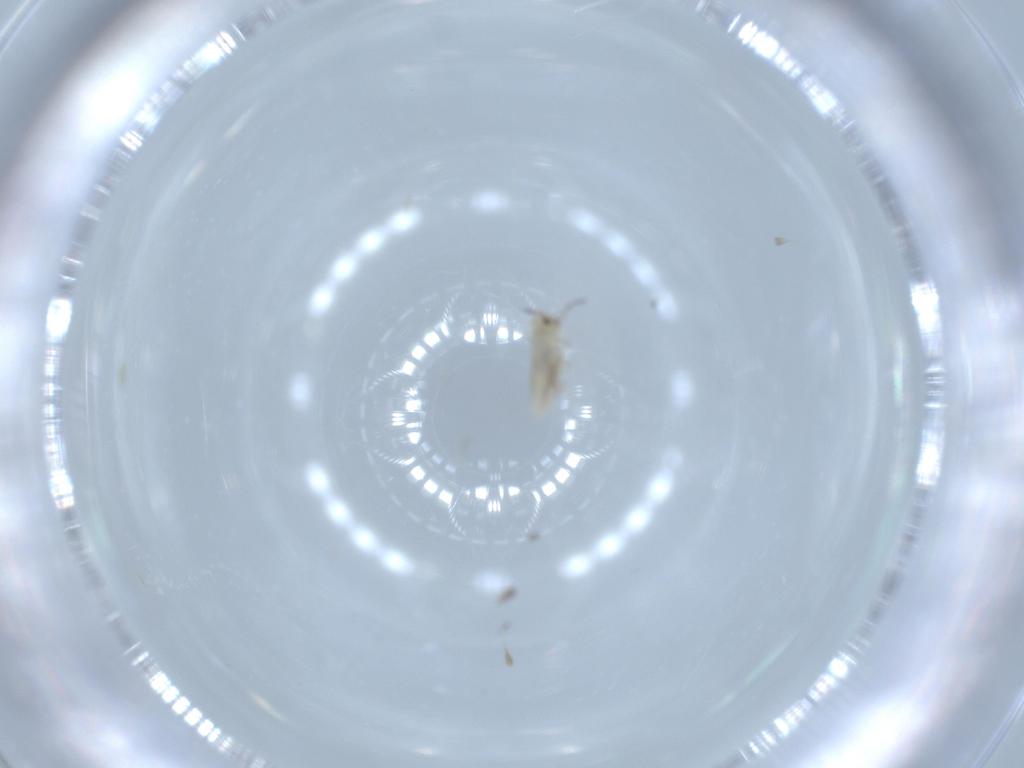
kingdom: Animalia
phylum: Arthropoda
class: Collembola
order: Entomobryomorpha
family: Entomobryidae
